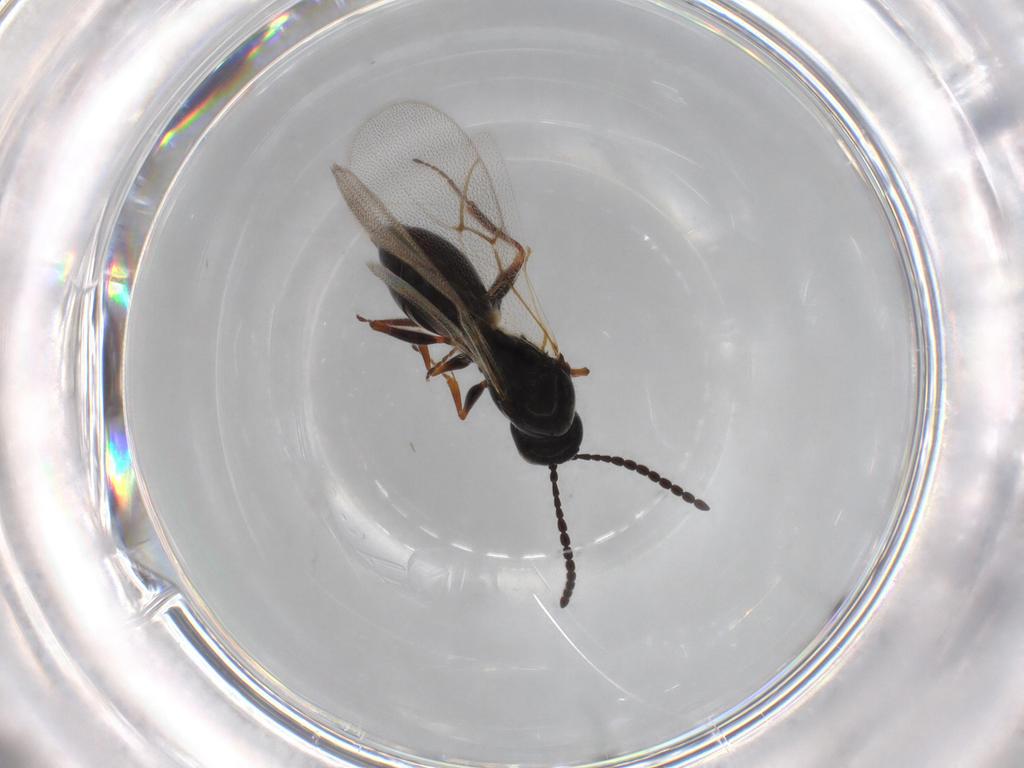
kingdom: Animalia
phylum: Arthropoda
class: Insecta
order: Hymenoptera
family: Figitidae
